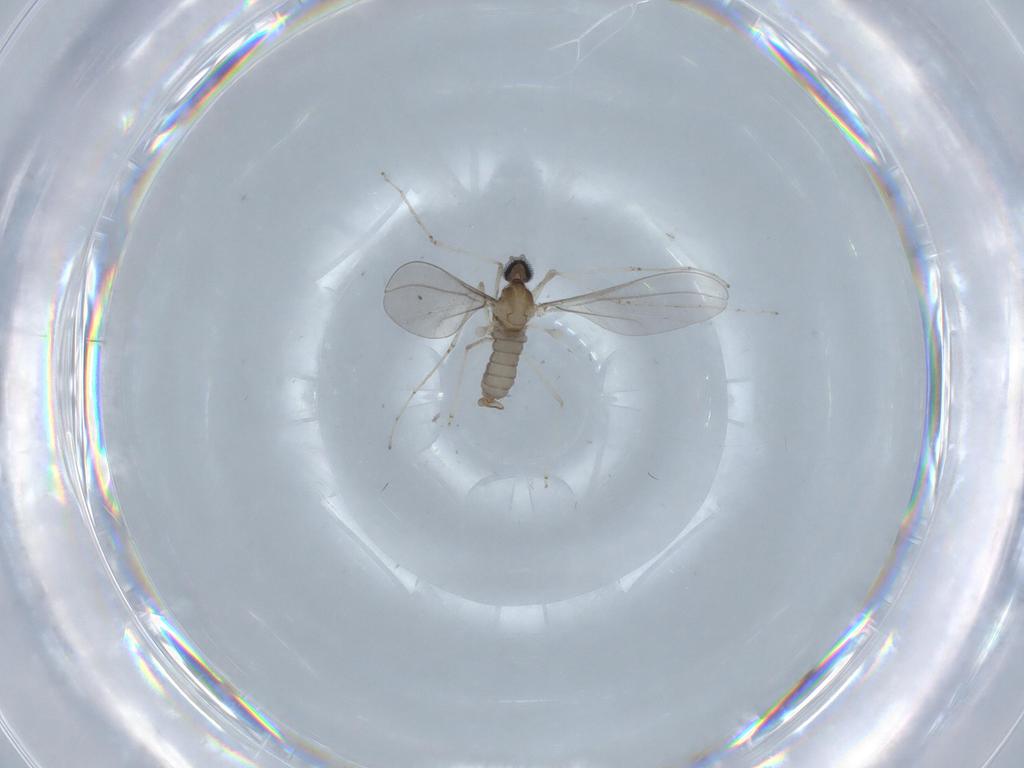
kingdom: Animalia
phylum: Arthropoda
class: Insecta
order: Diptera
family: Cecidomyiidae
